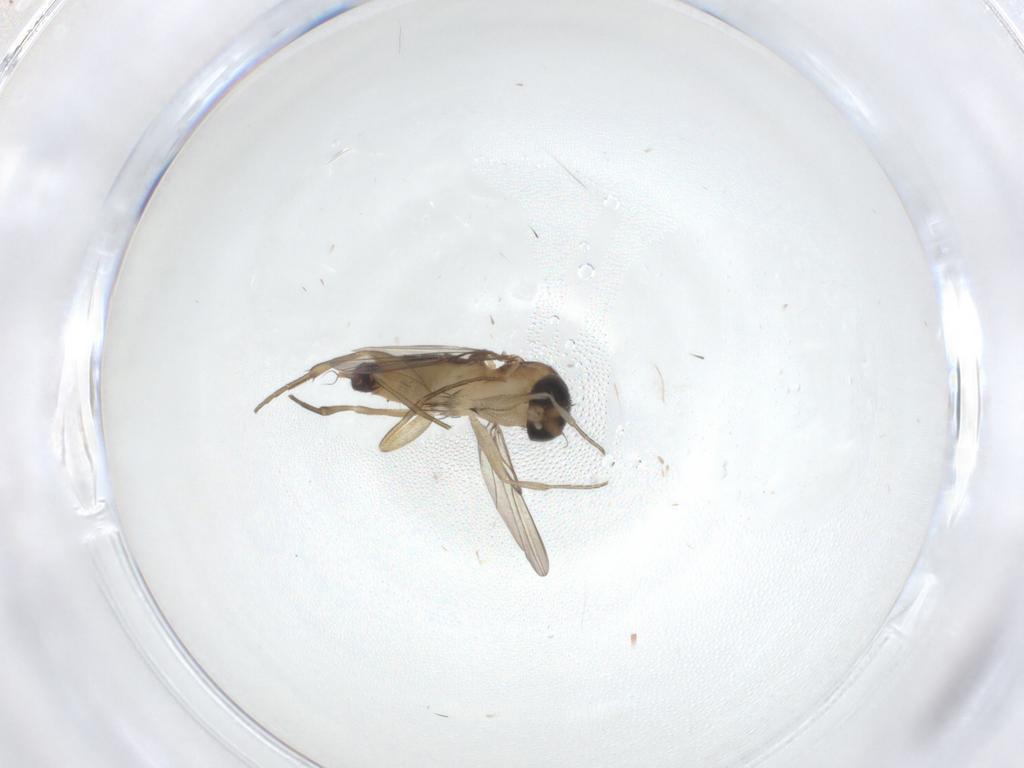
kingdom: Animalia
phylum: Arthropoda
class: Insecta
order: Diptera
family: Phoridae
